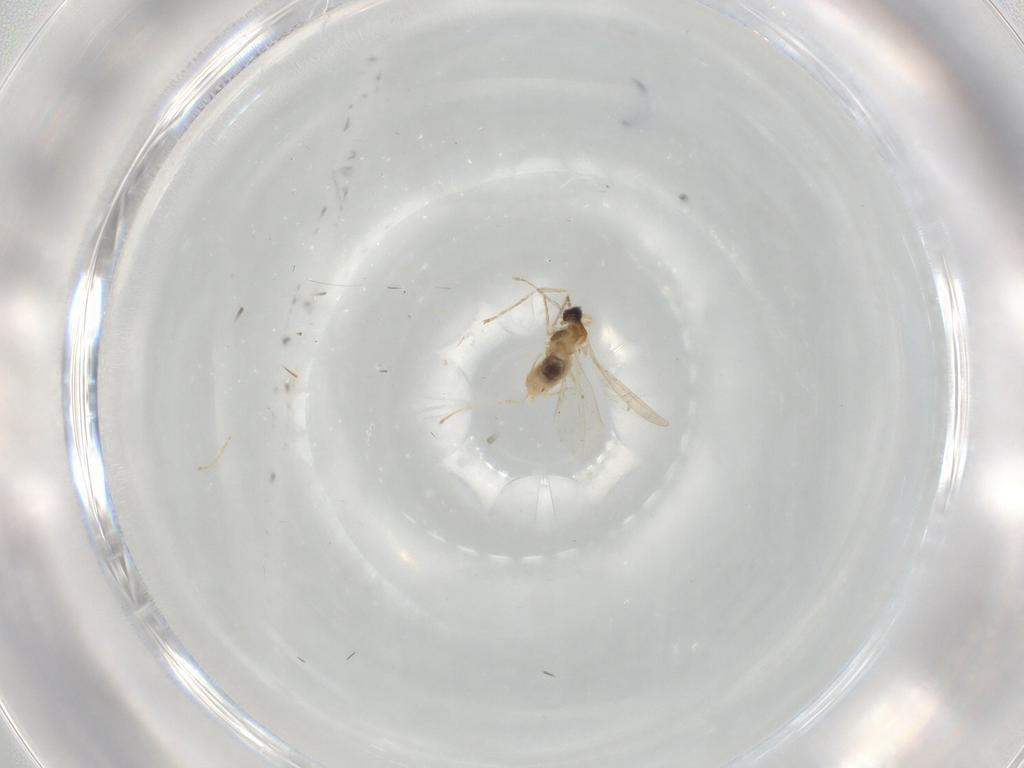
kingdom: Animalia
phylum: Arthropoda
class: Insecta
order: Diptera
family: Cecidomyiidae
